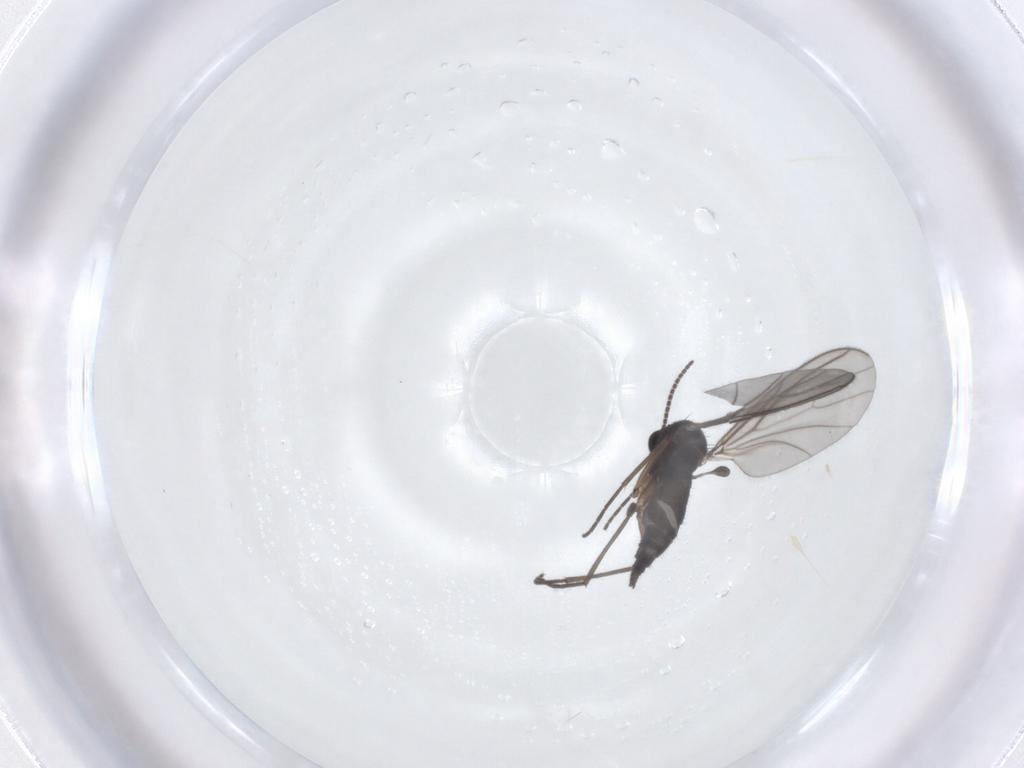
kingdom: Animalia
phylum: Arthropoda
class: Insecta
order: Diptera
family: Sciaridae
